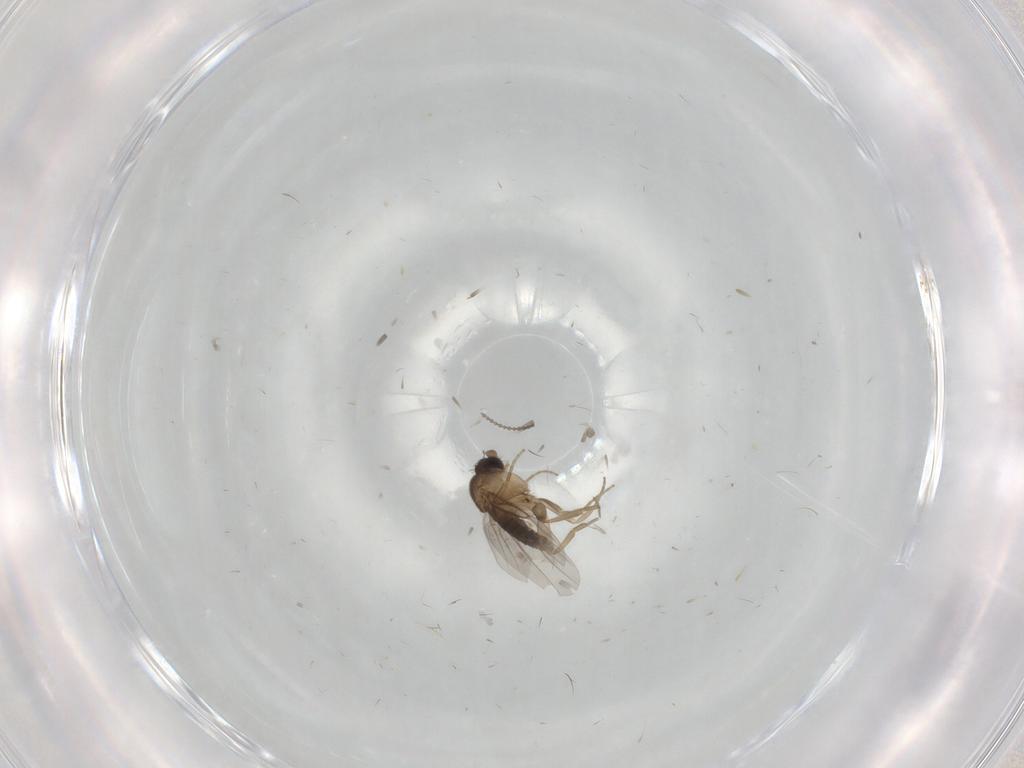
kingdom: Animalia
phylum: Arthropoda
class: Insecta
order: Diptera
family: Phoridae
